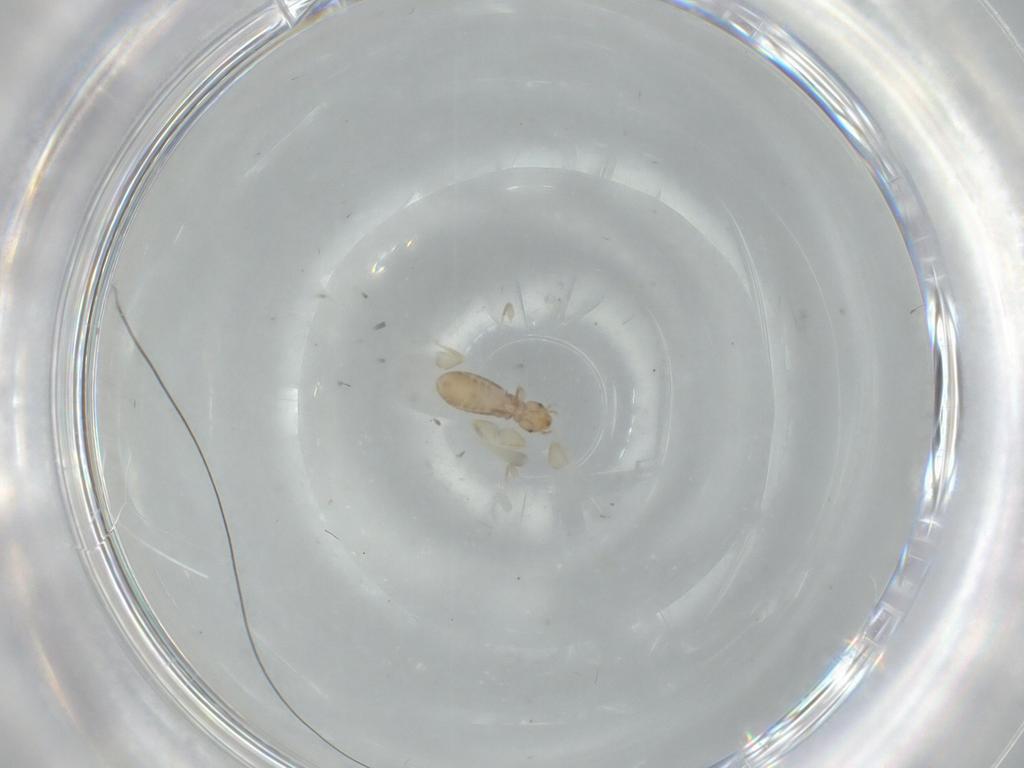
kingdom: Animalia
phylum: Arthropoda
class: Insecta
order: Psocodea
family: Liposcelididae
